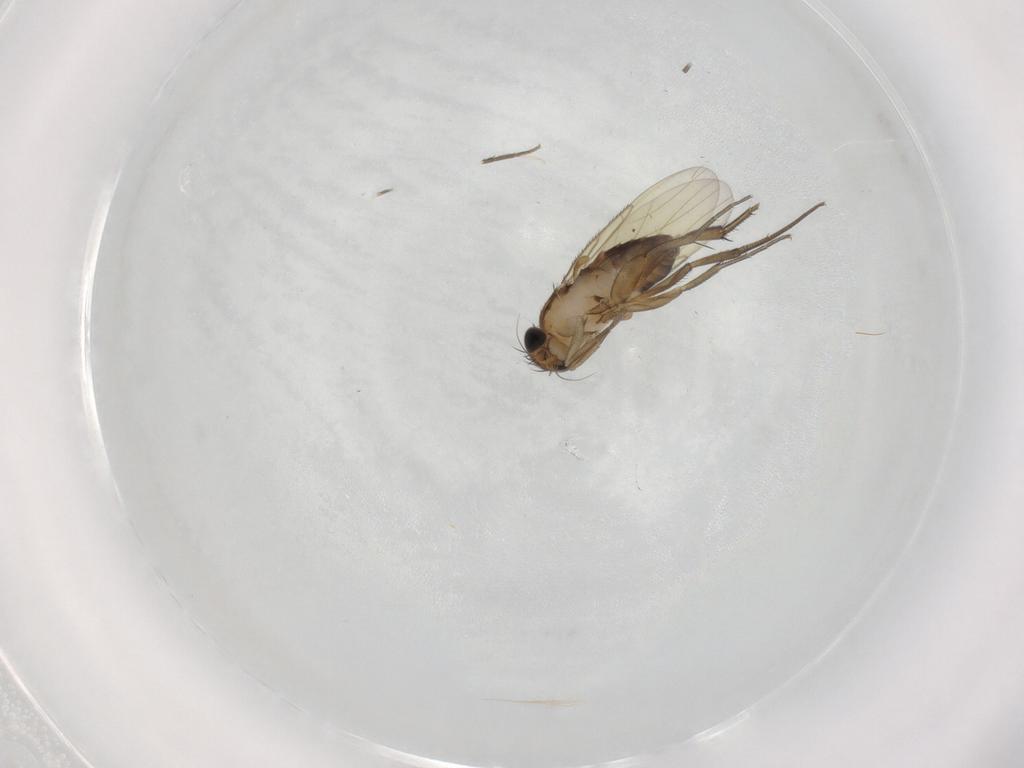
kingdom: Animalia
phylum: Arthropoda
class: Insecta
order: Diptera
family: Phoridae
